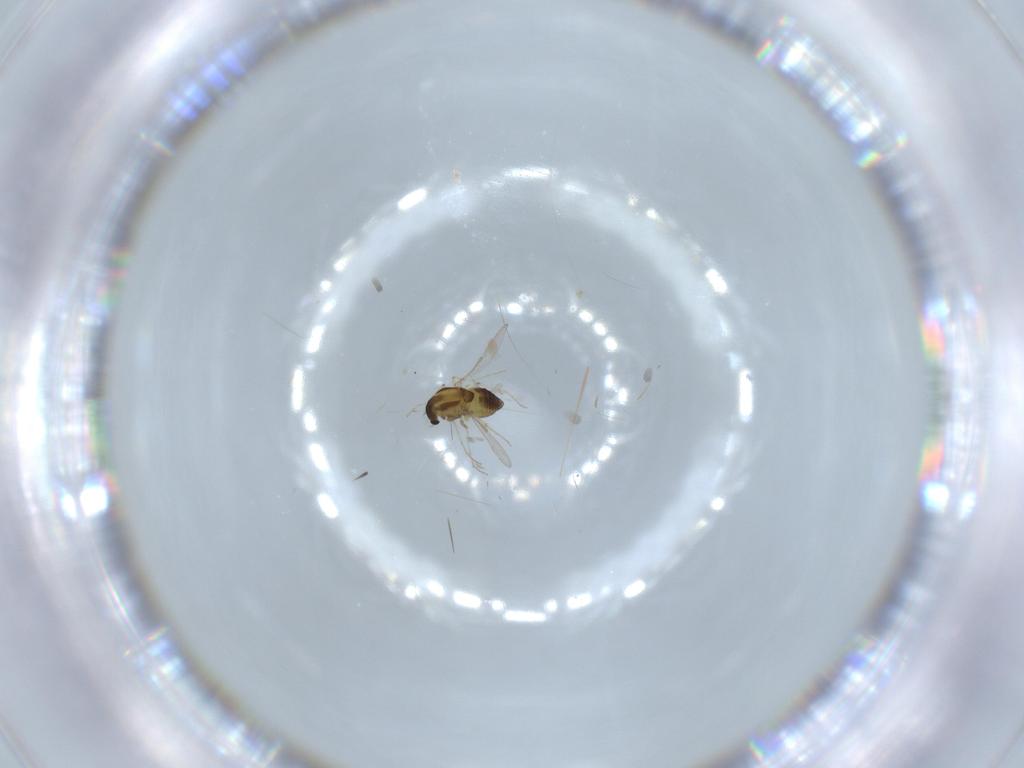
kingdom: Animalia
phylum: Arthropoda
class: Insecta
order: Diptera
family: Chironomidae
